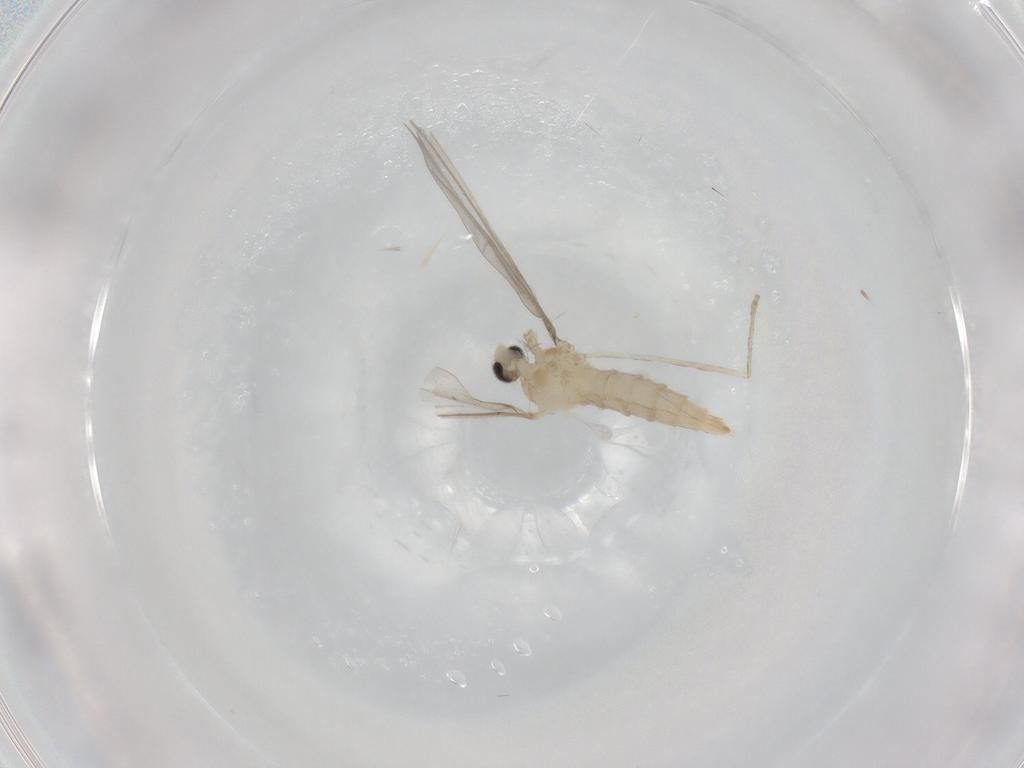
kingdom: Animalia
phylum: Arthropoda
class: Insecta
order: Diptera
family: Cecidomyiidae
